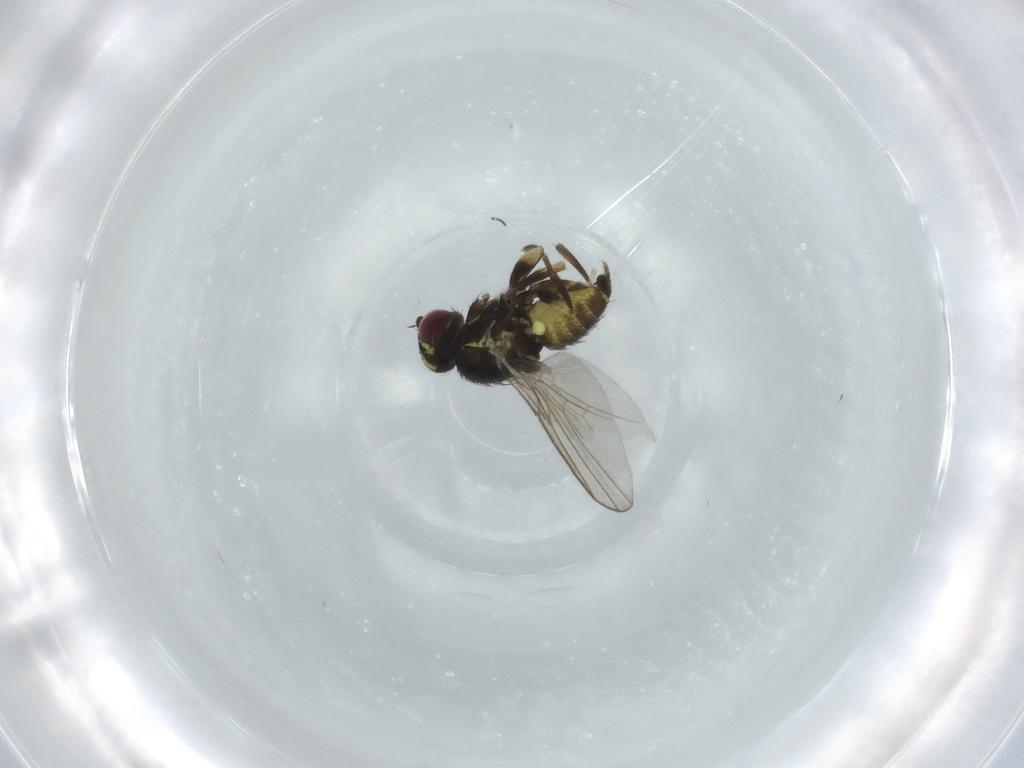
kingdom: Animalia
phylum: Arthropoda
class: Insecta
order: Diptera
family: Agromyzidae
